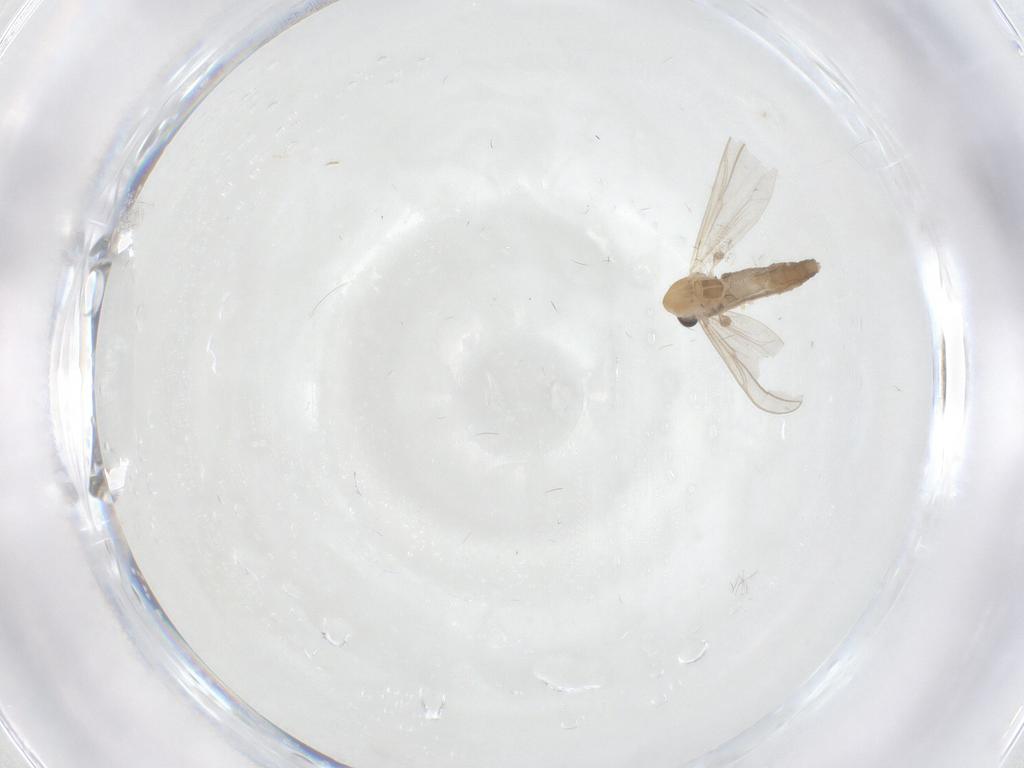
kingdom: Animalia
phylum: Arthropoda
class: Insecta
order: Diptera
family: Chironomidae
